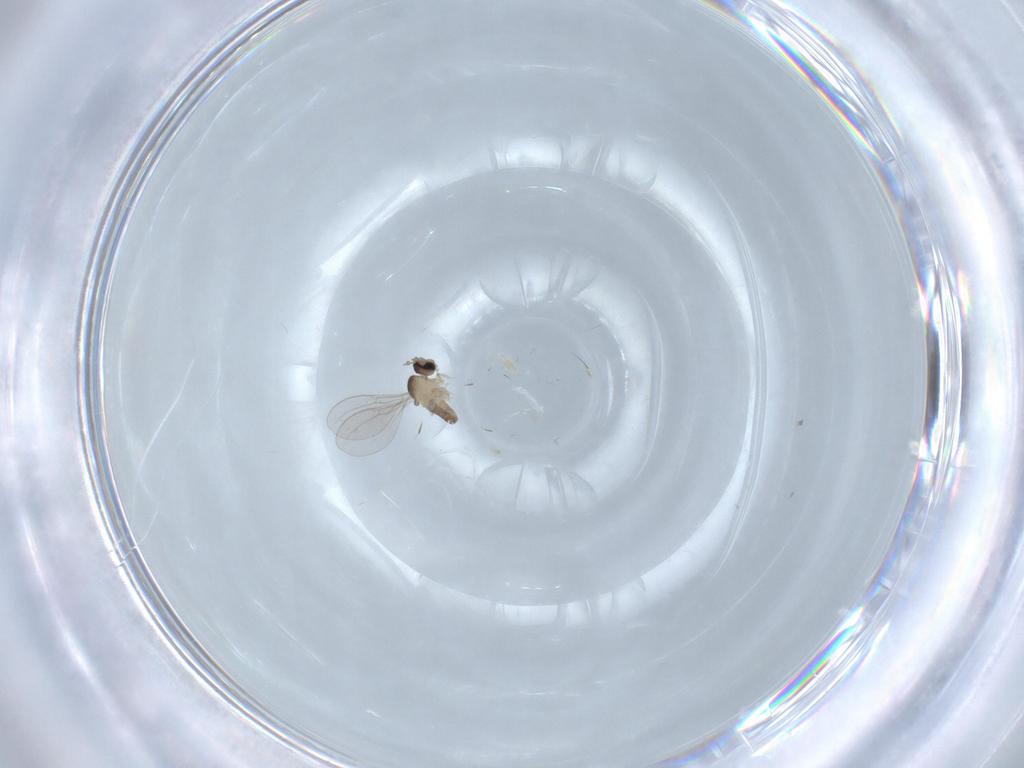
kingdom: Animalia
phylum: Arthropoda
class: Insecta
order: Diptera
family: Cecidomyiidae
